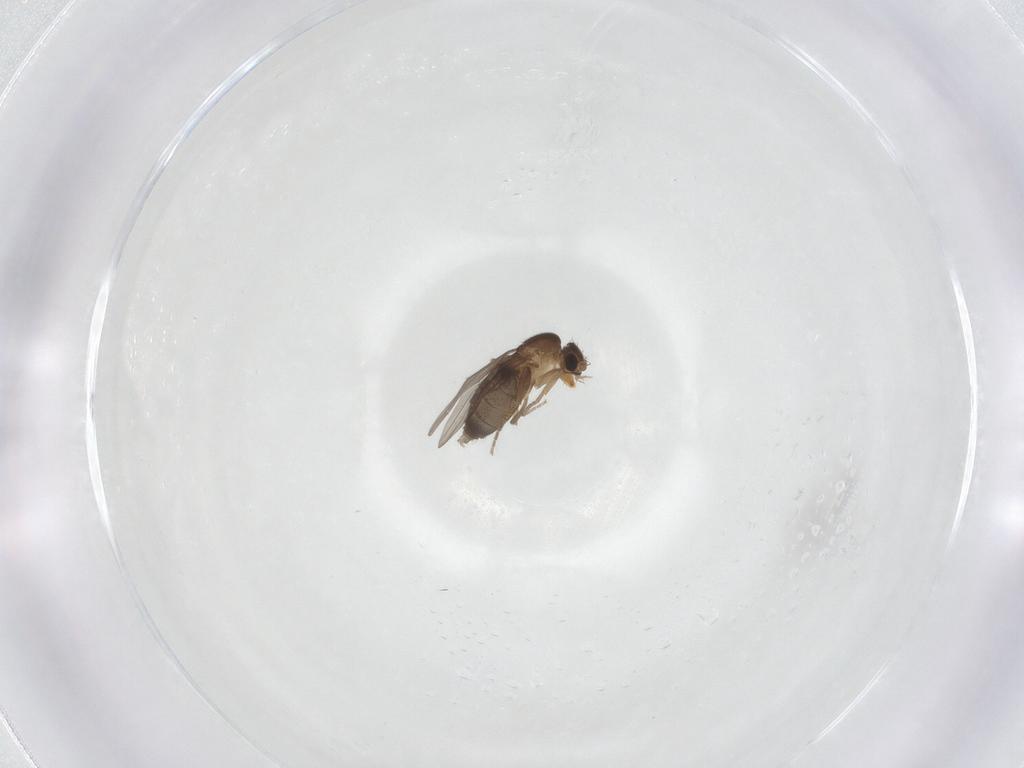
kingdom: Animalia
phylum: Arthropoda
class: Insecta
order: Diptera
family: Phoridae
